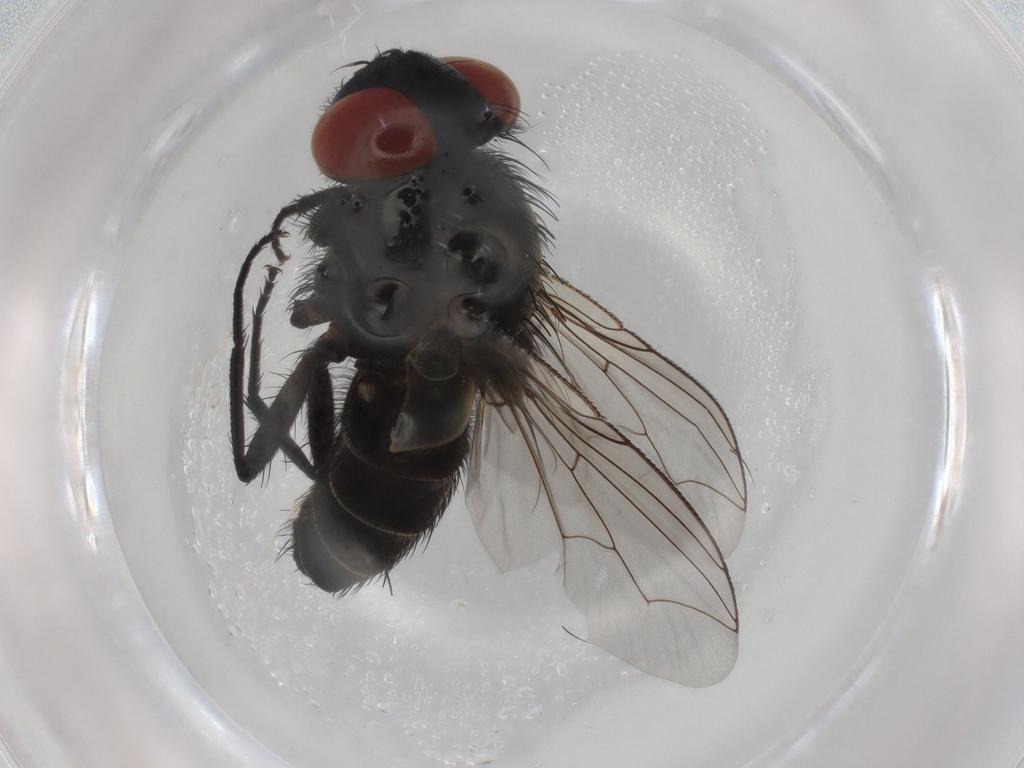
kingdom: Animalia
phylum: Arthropoda
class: Insecta
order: Diptera
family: Sarcophagidae
